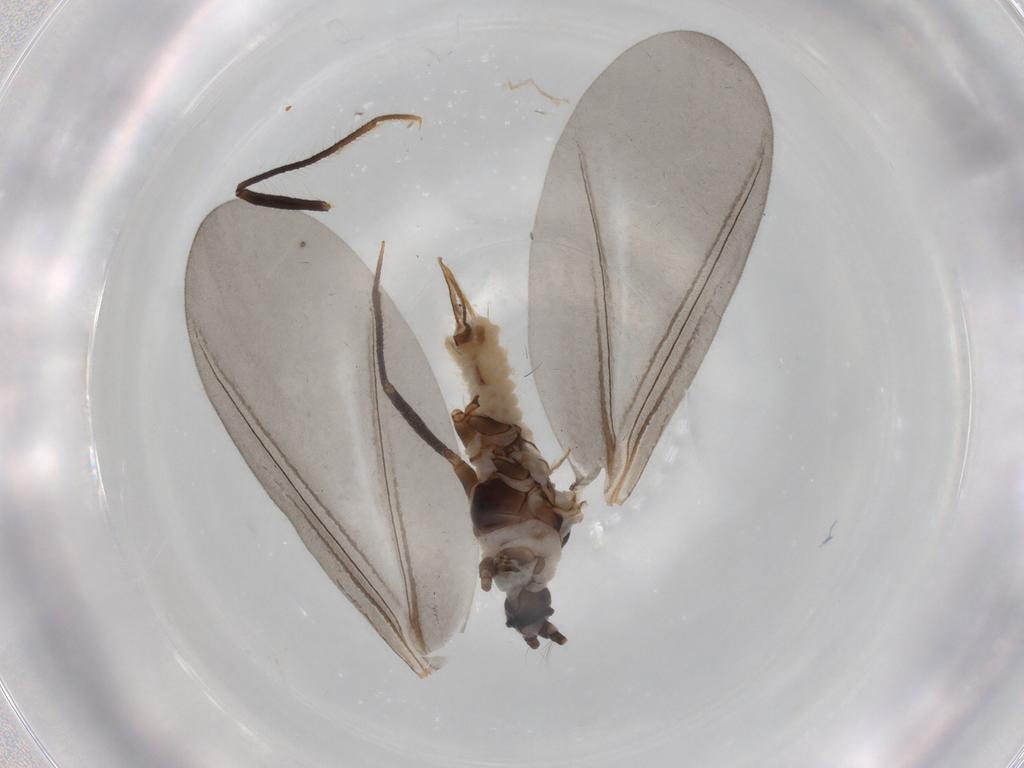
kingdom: Animalia
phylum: Arthropoda
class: Insecta
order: Hemiptera
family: Putoidae
